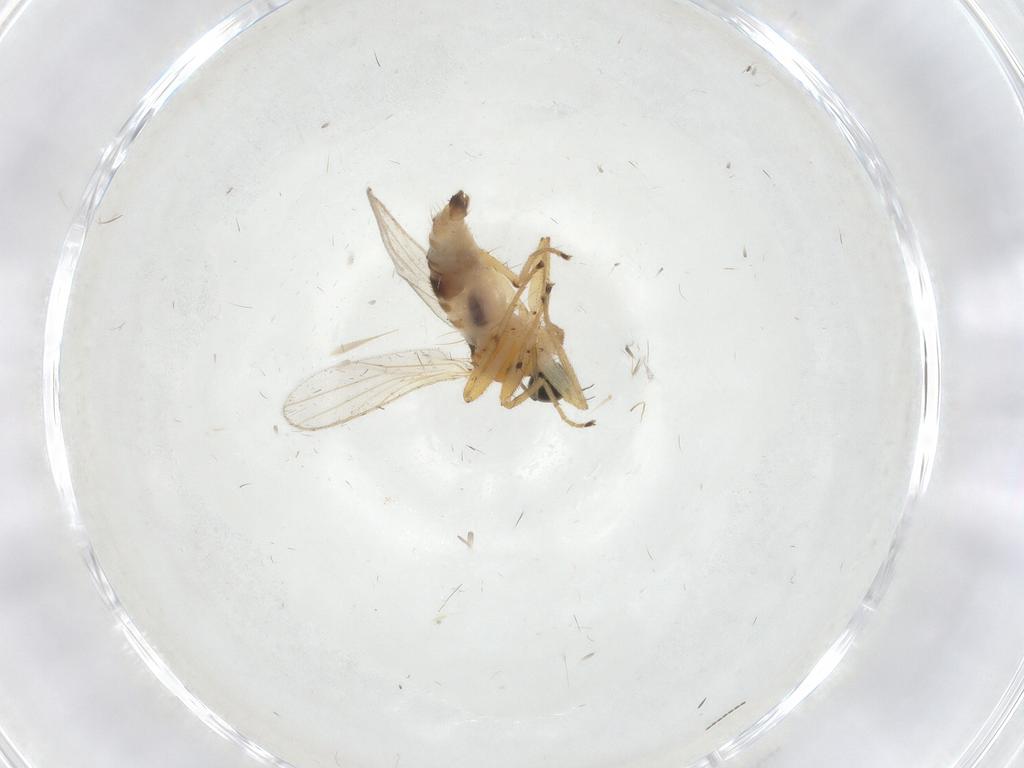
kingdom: Animalia
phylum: Arthropoda
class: Insecta
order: Diptera
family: Cecidomyiidae
